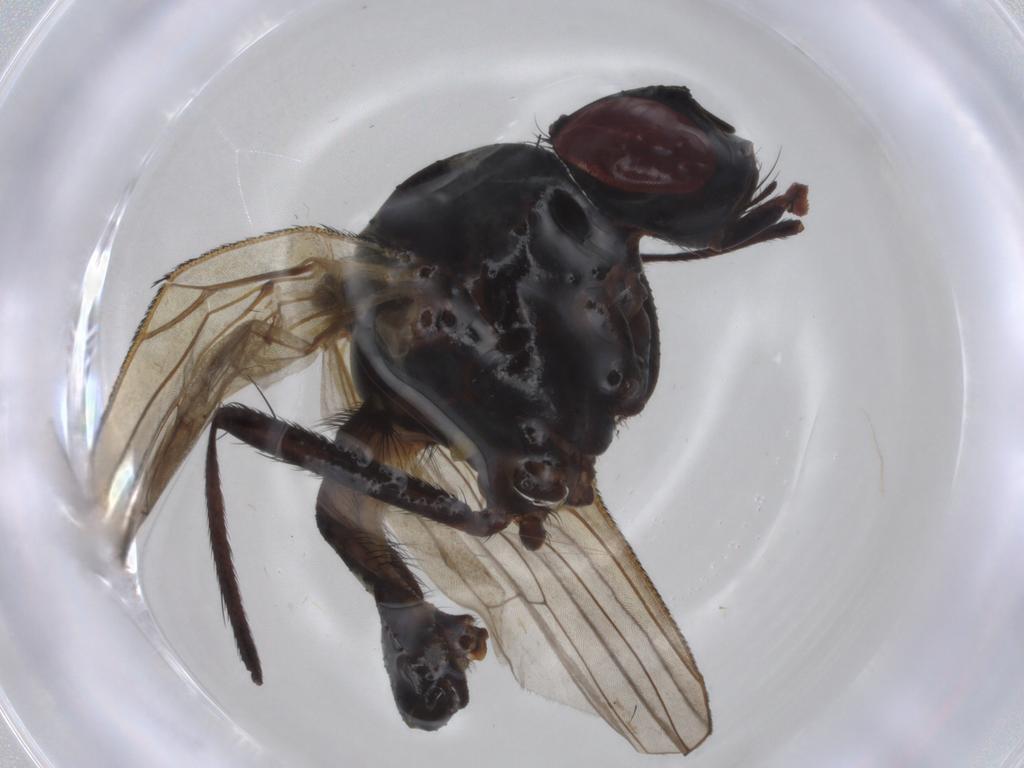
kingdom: Animalia
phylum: Arthropoda
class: Insecta
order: Diptera
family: Anthomyiidae
